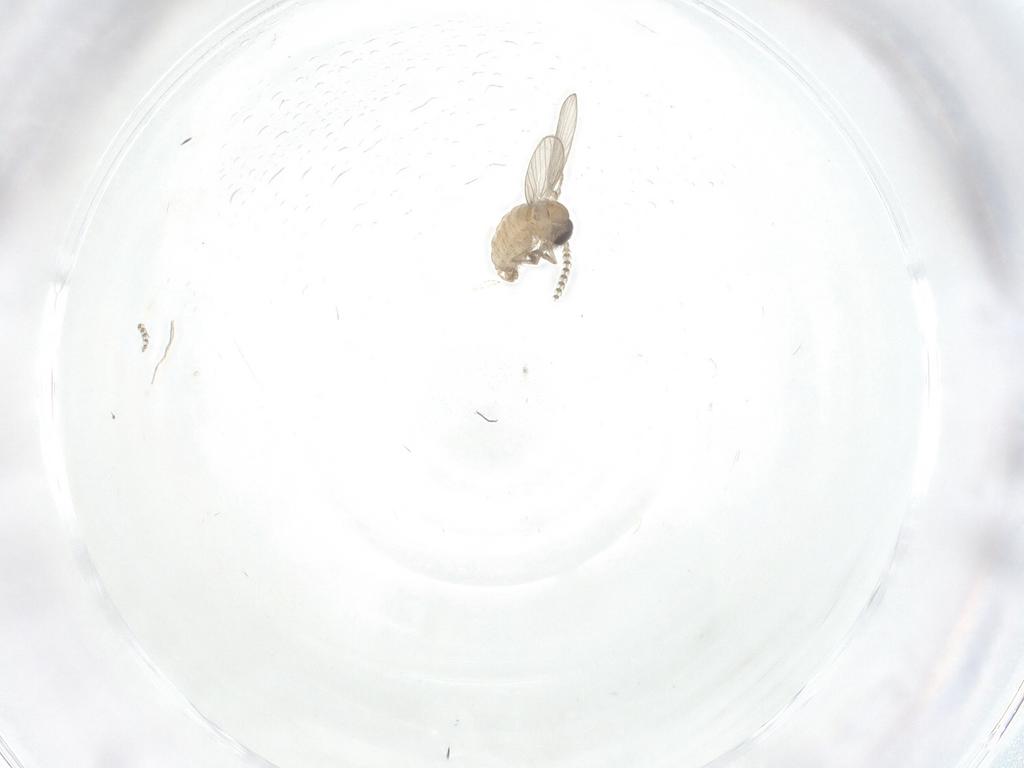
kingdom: Animalia
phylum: Arthropoda
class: Insecta
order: Diptera
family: Psychodidae
